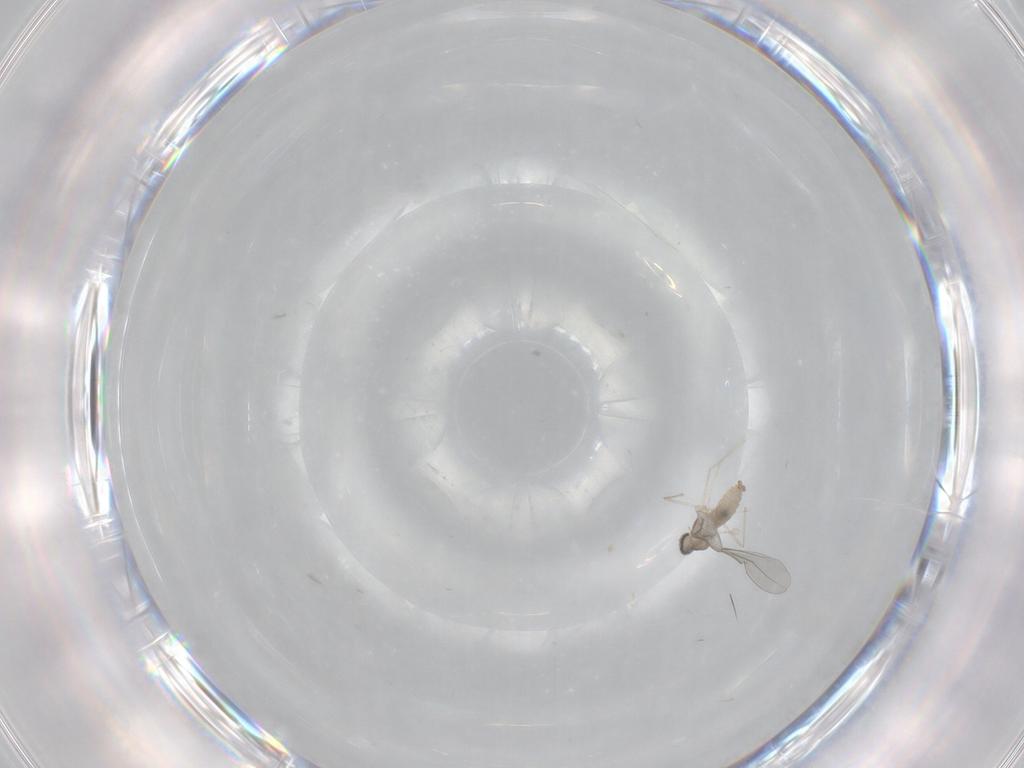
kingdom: Animalia
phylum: Arthropoda
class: Insecta
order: Diptera
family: Cecidomyiidae
